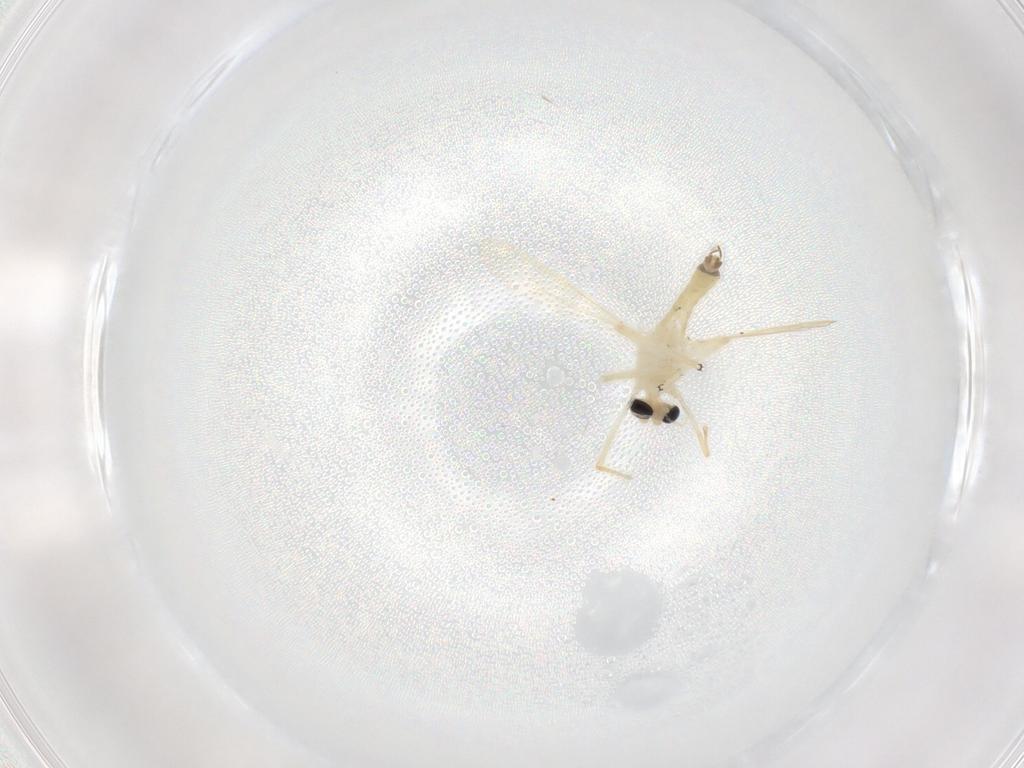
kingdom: Animalia
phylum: Arthropoda
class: Insecta
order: Diptera
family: Chironomidae
